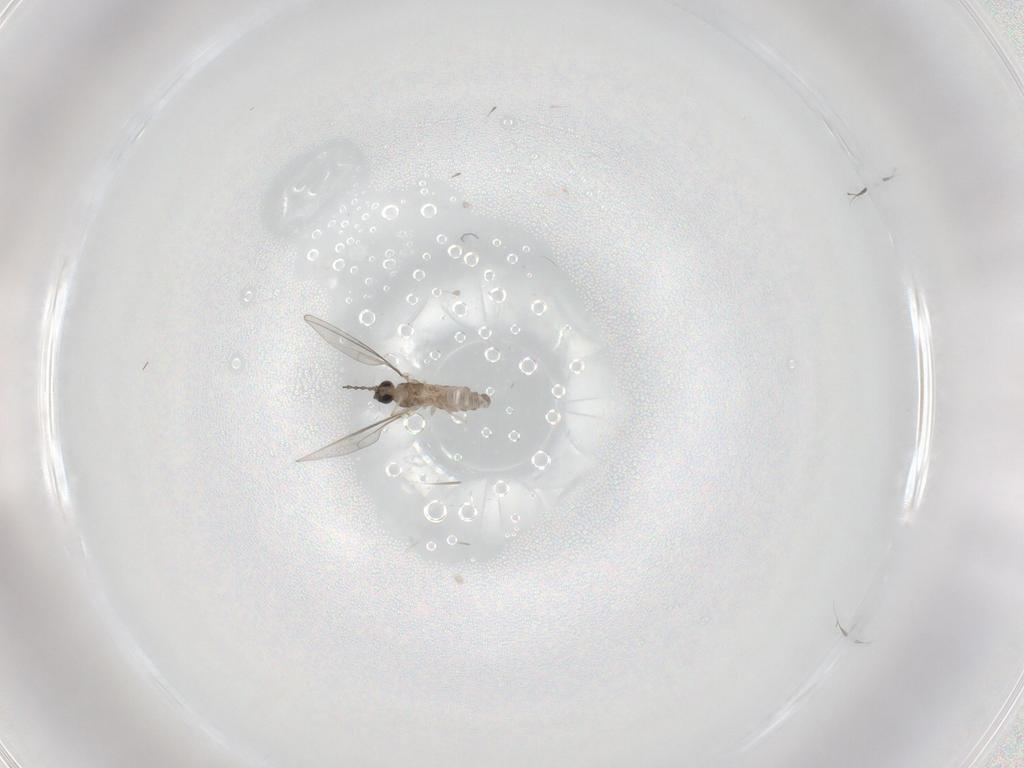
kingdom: Animalia
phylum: Arthropoda
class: Insecta
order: Diptera
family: Cecidomyiidae
